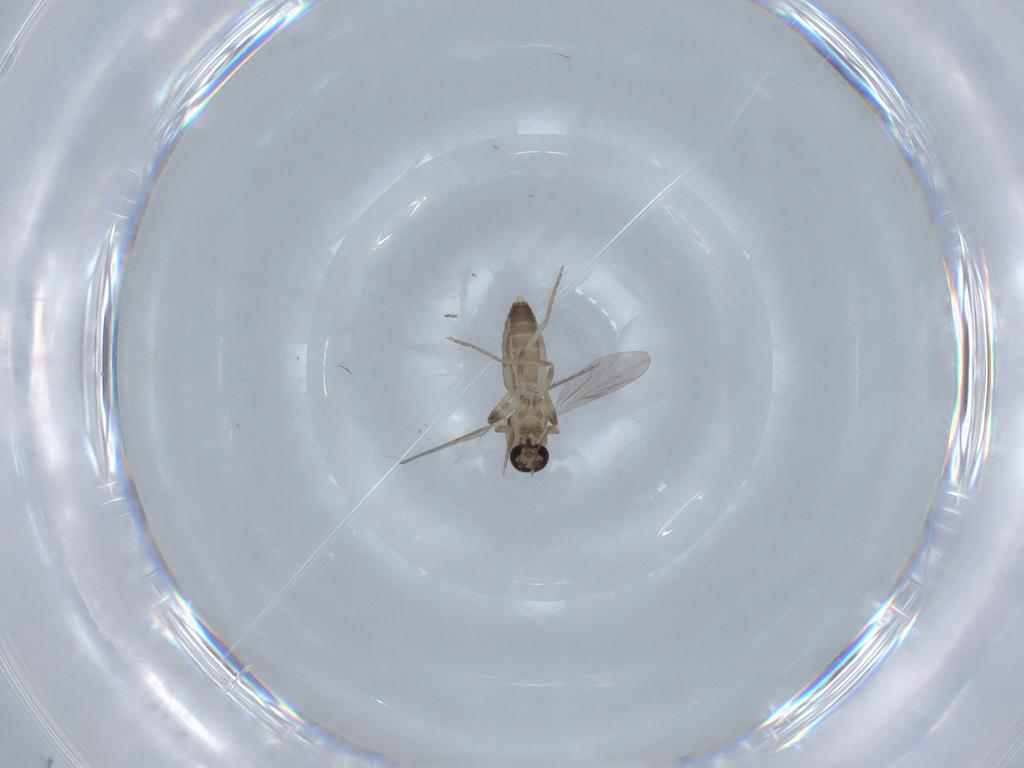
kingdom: Animalia
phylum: Arthropoda
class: Insecta
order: Diptera
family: Ceratopogonidae
